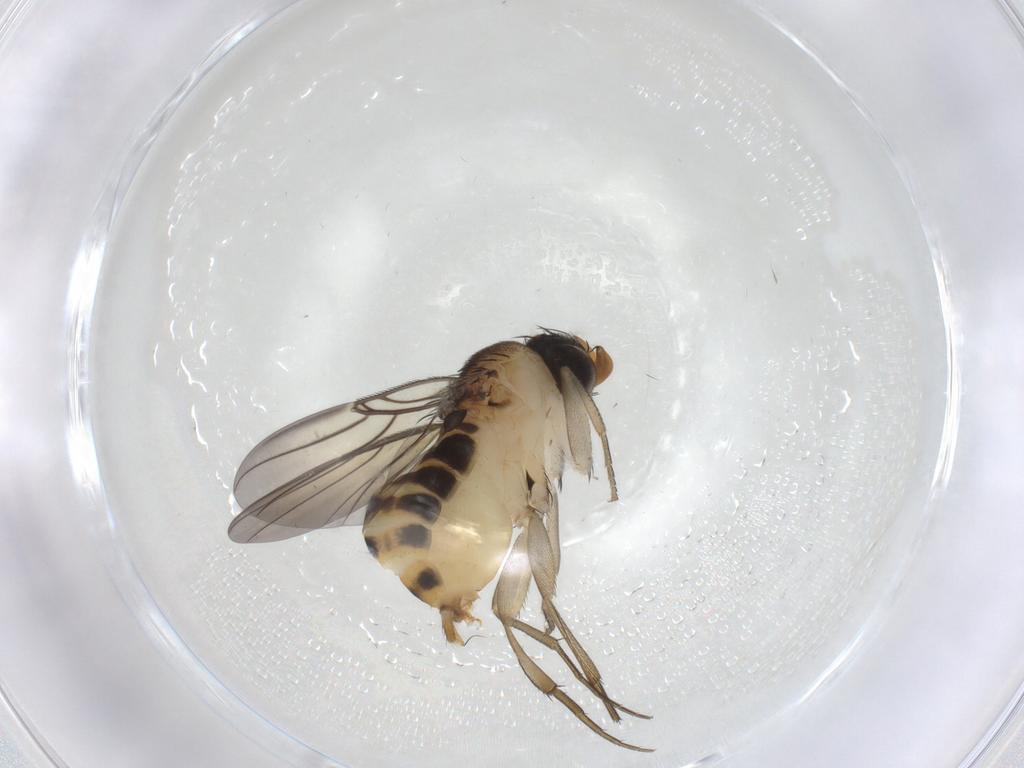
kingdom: Animalia
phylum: Arthropoda
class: Insecta
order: Diptera
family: Phoridae
